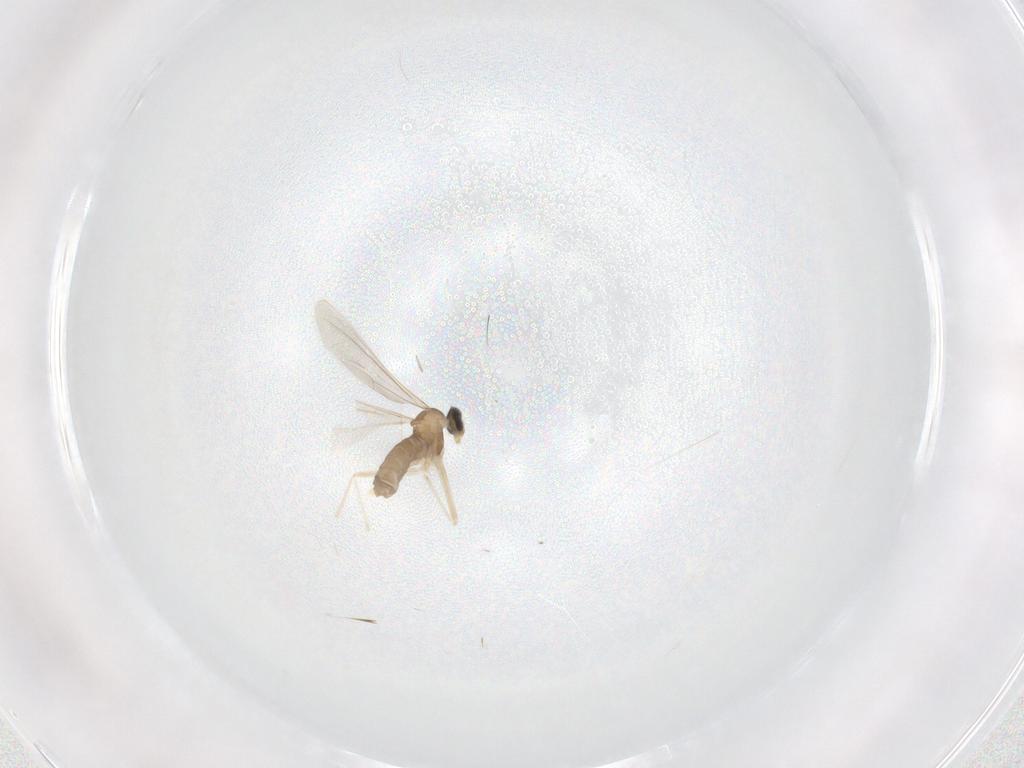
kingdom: Animalia
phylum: Arthropoda
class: Insecta
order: Diptera
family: Cecidomyiidae
